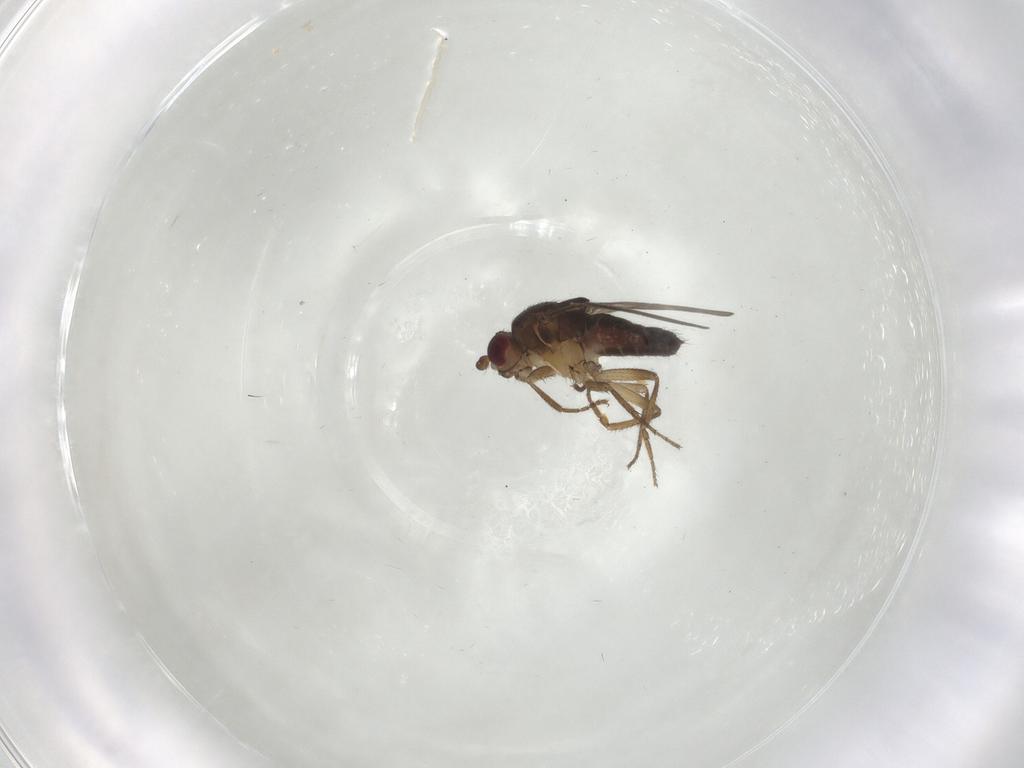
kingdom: Animalia
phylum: Arthropoda
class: Insecta
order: Diptera
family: Sphaeroceridae
